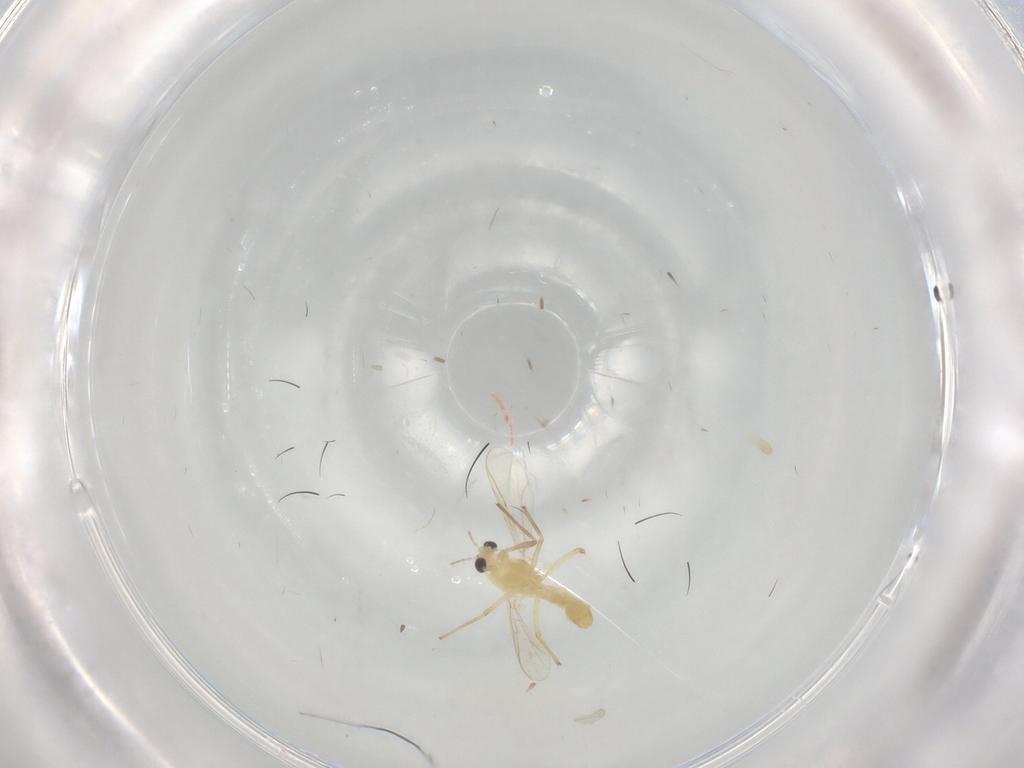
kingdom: Animalia
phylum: Arthropoda
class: Insecta
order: Diptera
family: Chironomidae
